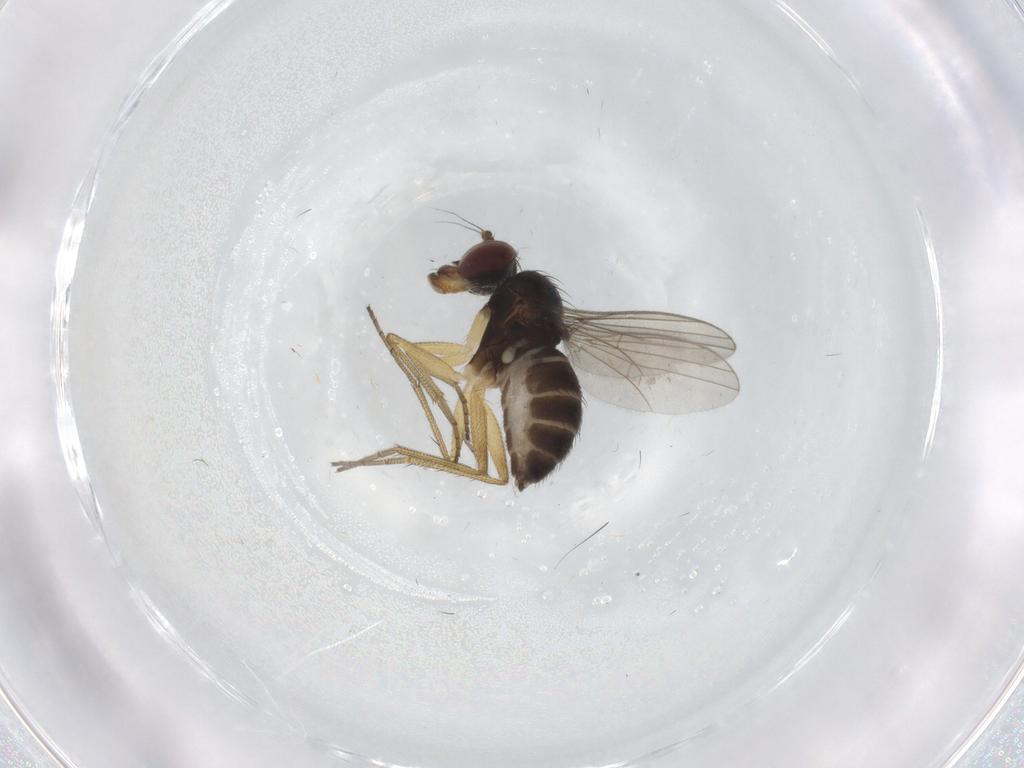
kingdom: Animalia
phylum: Arthropoda
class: Insecta
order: Diptera
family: Dolichopodidae
